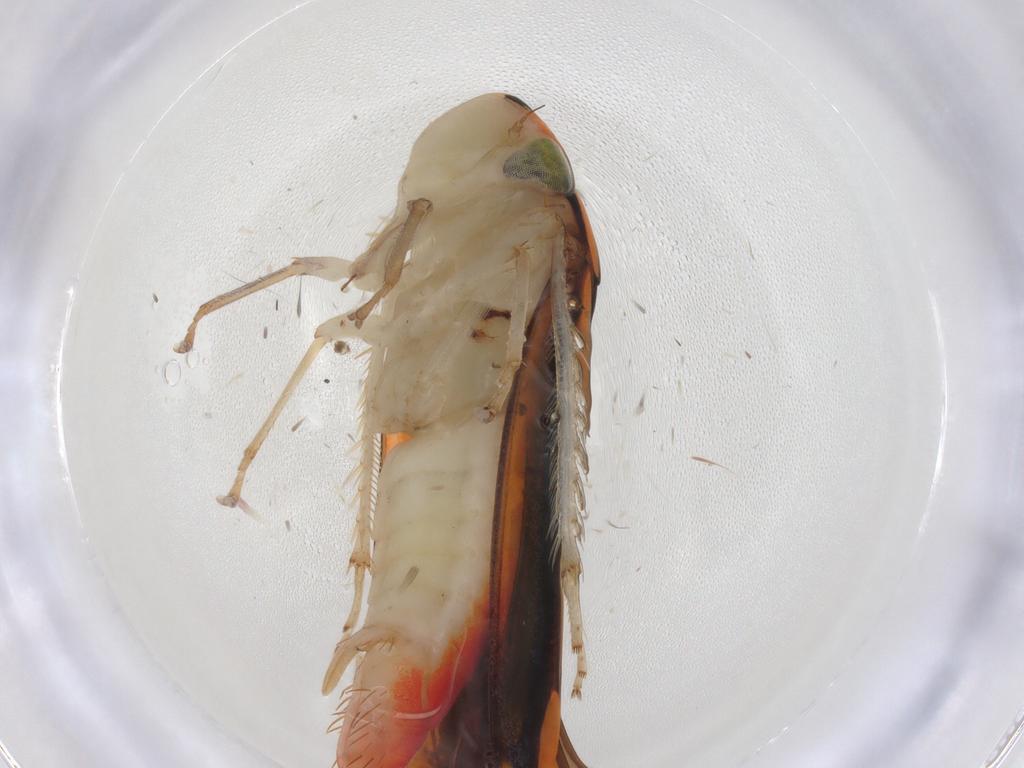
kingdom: Animalia
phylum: Arthropoda
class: Insecta
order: Hemiptera
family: Cicadellidae
